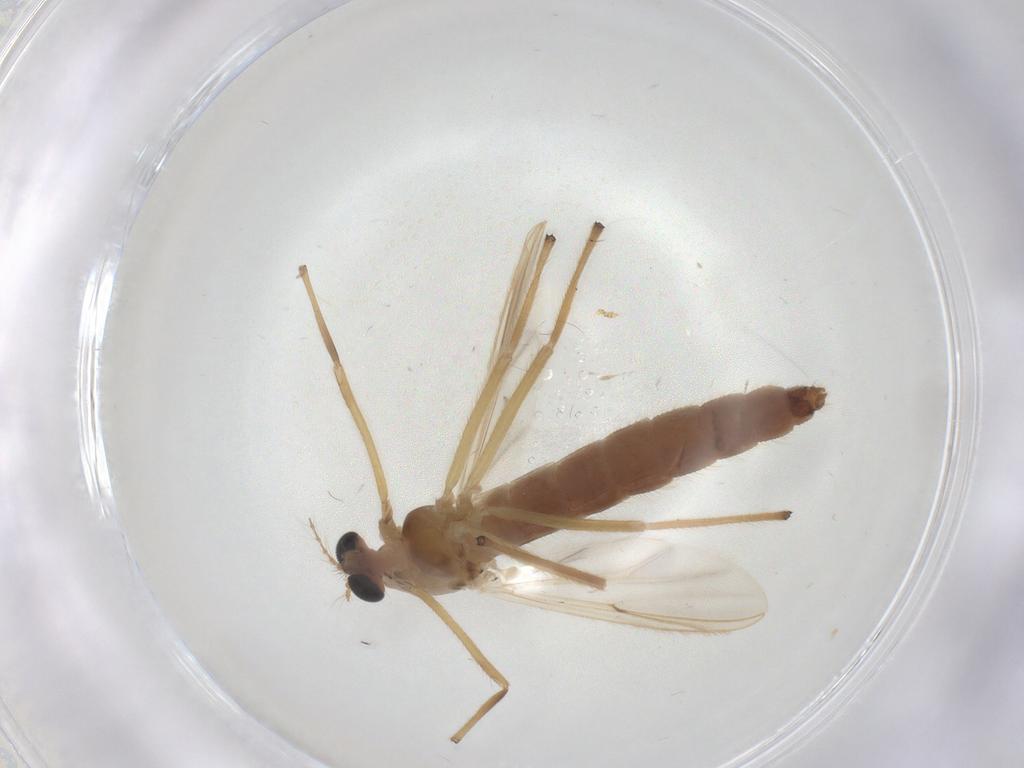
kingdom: Animalia
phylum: Arthropoda
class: Insecta
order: Diptera
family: Chironomidae
